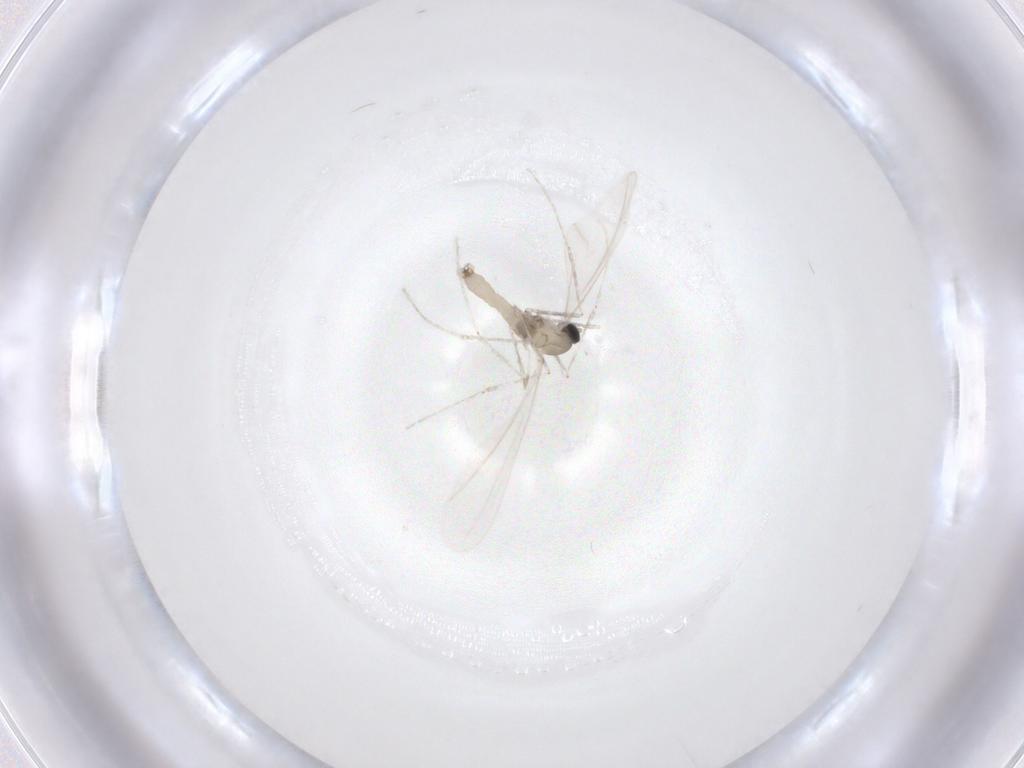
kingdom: Animalia
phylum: Arthropoda
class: Insecta
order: Diptera
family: Cecidomyiidae
